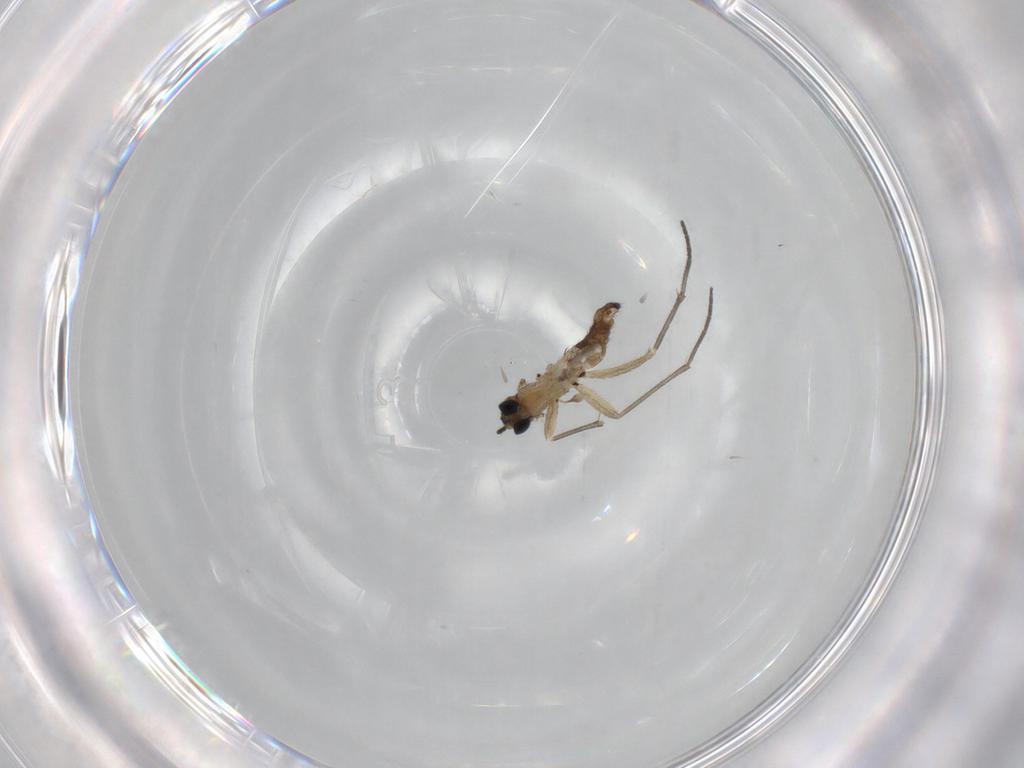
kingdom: Animalia
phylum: Arthropoda
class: Insecta
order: Diptera
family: Sciaridae
